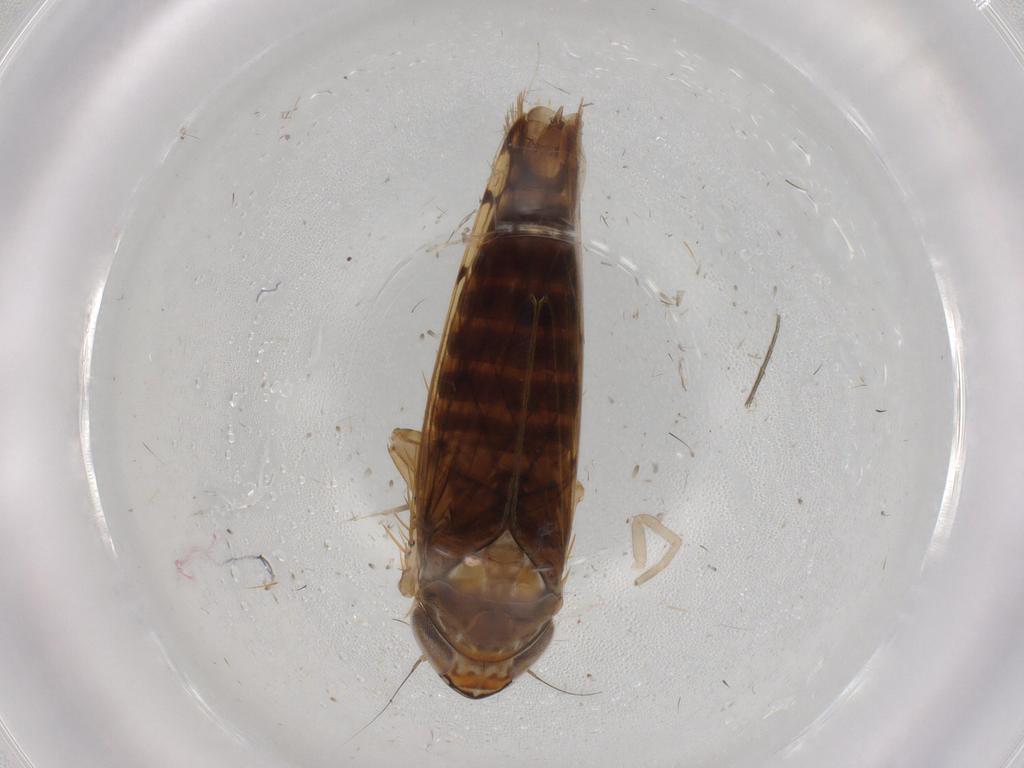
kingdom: Animalia
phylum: Arthropoda
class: Insecta
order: Hemiptera
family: Cicadellidae
